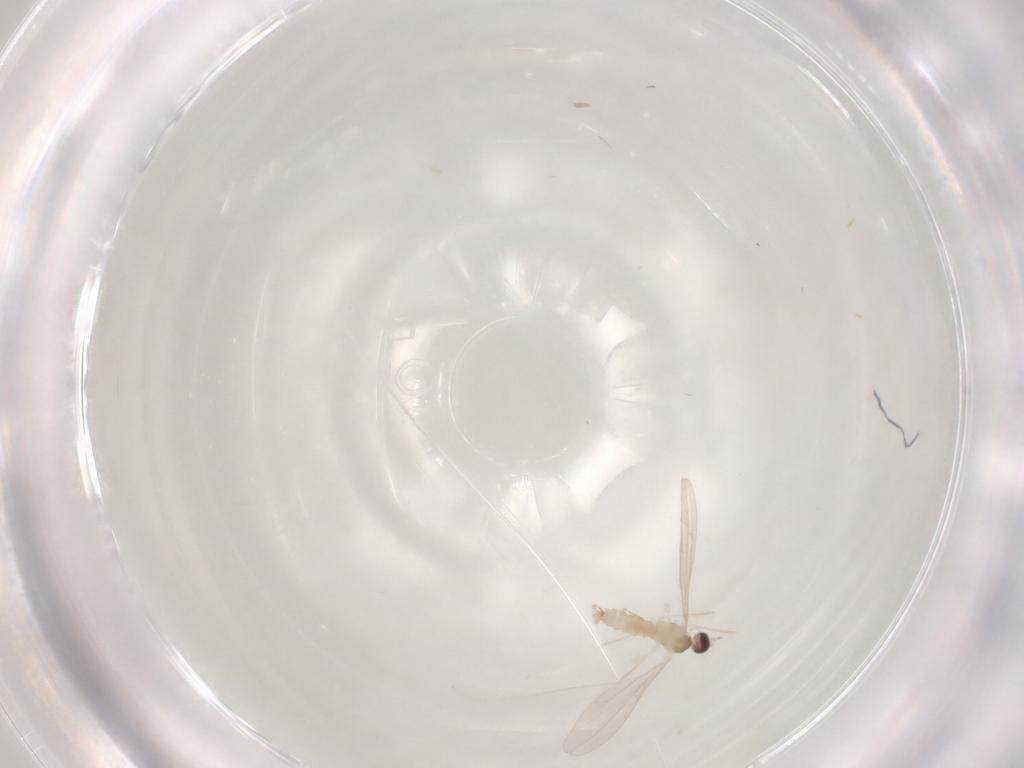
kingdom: Animalia
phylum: Arthropoda
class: Insecta
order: Diptera
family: Cecidomyiidae
